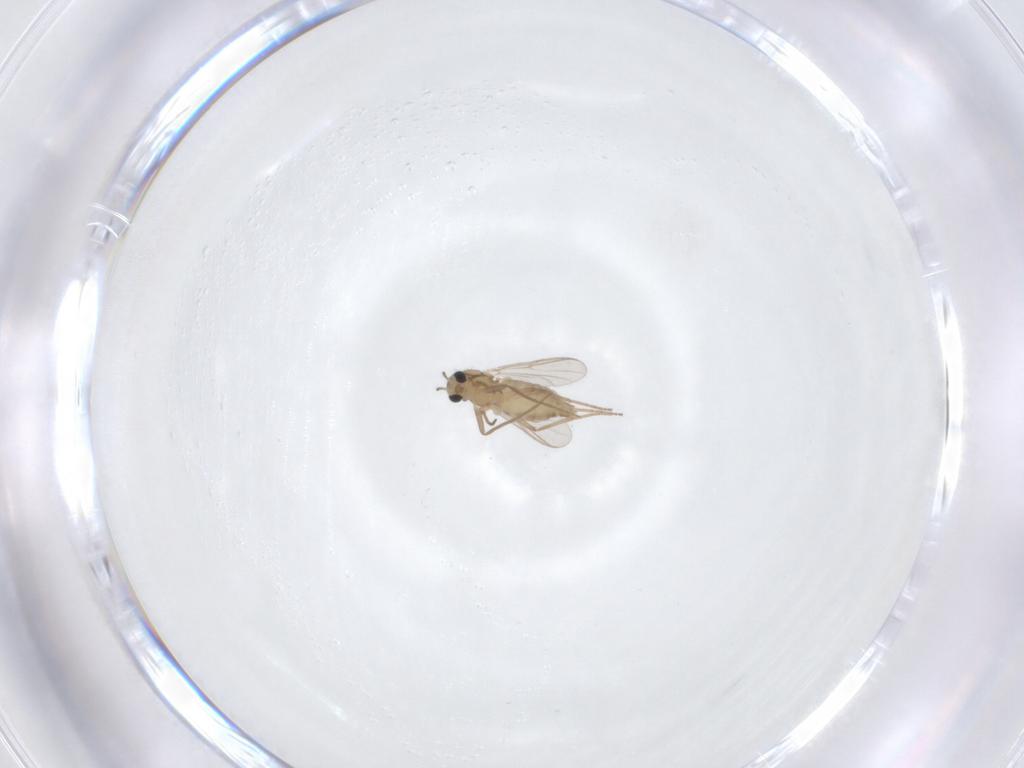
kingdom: Animalia
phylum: Arthropoda
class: Insecta
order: Diptera
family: Chironomidae
